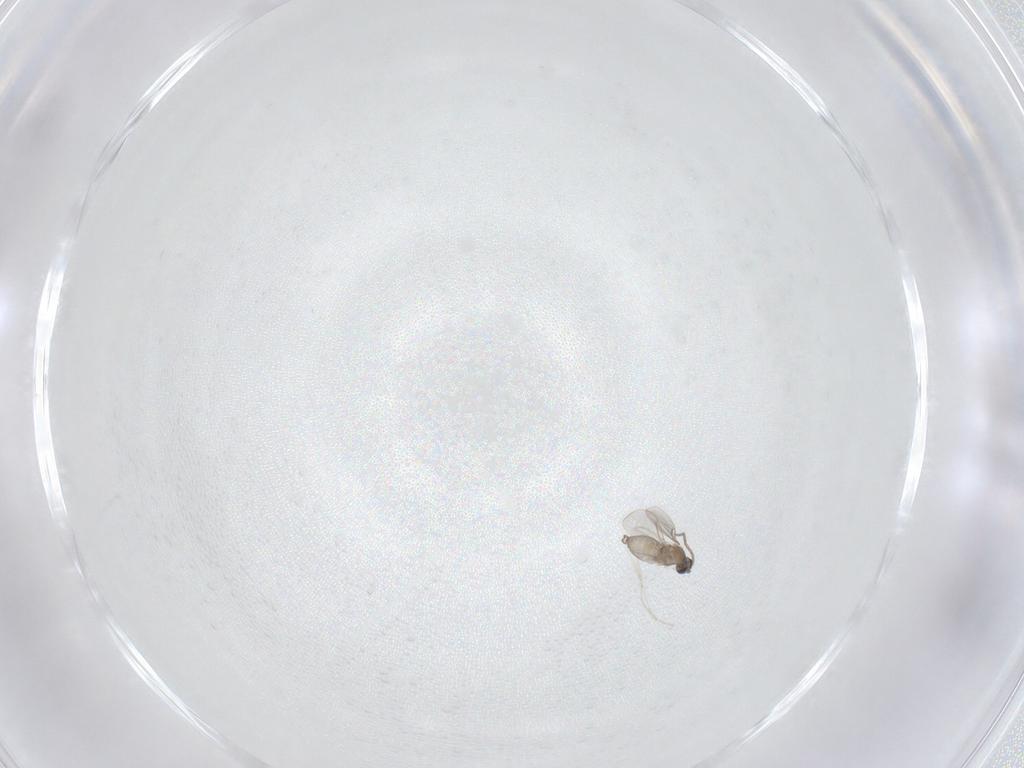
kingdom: Animalia
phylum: Arthropoda
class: Insecta
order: Diptera
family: Cecidomyiidae
